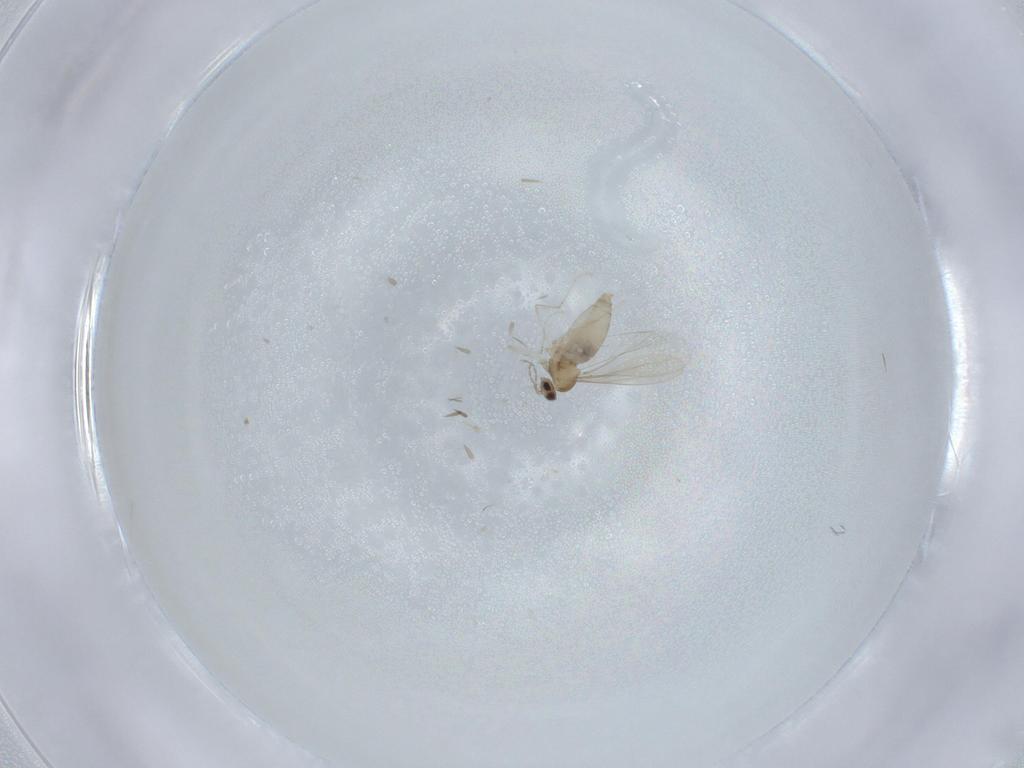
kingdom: Animalia
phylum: Arthropoda
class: Insecta
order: Diptera
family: Cecidomyiidae
